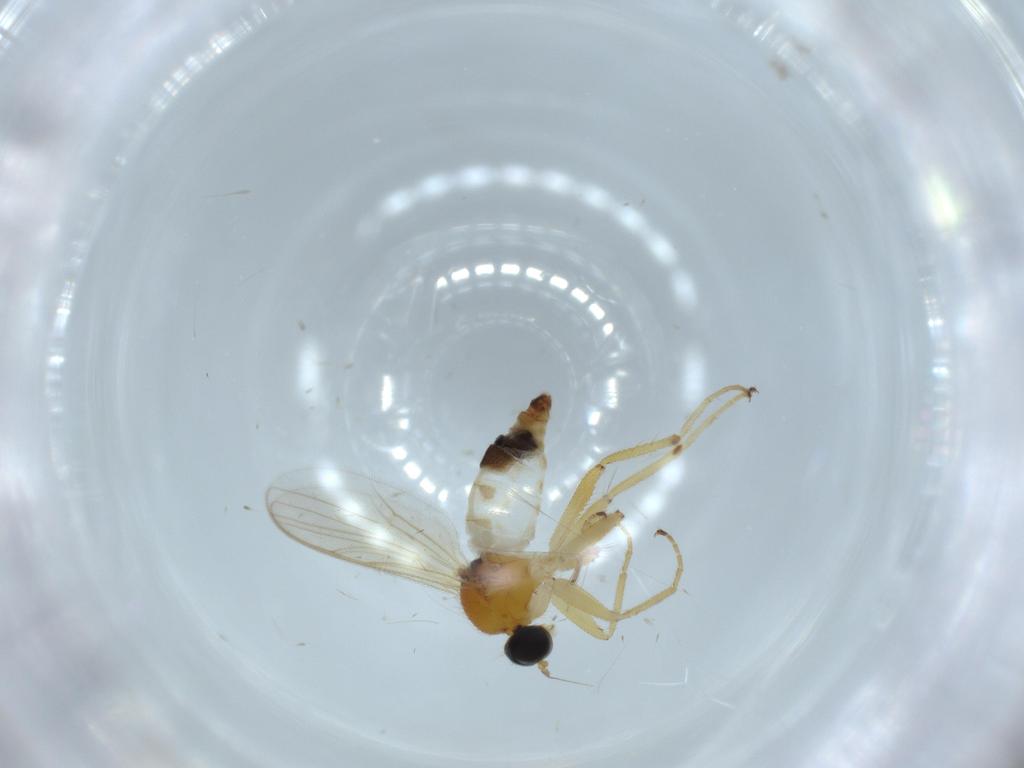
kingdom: Animalia
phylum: Arthropoda
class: Insecta
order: Diptera
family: Hybotidae
